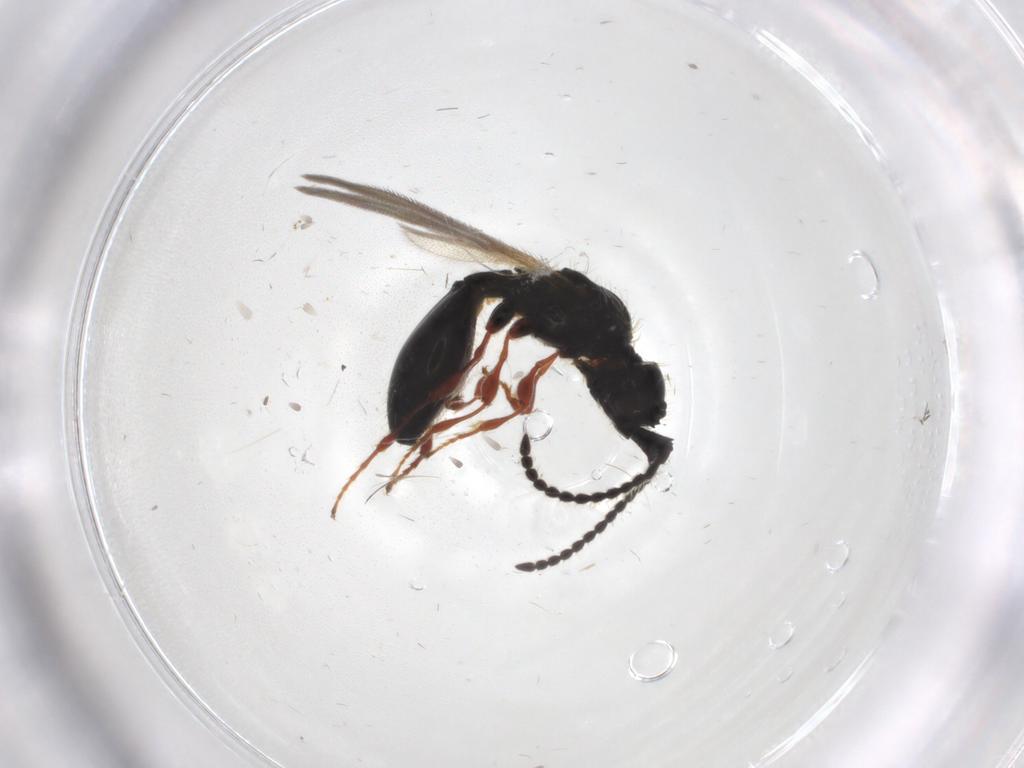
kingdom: Animalia
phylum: Arthropoda
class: Insecta
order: Hymenoptera
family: Diapriidae
